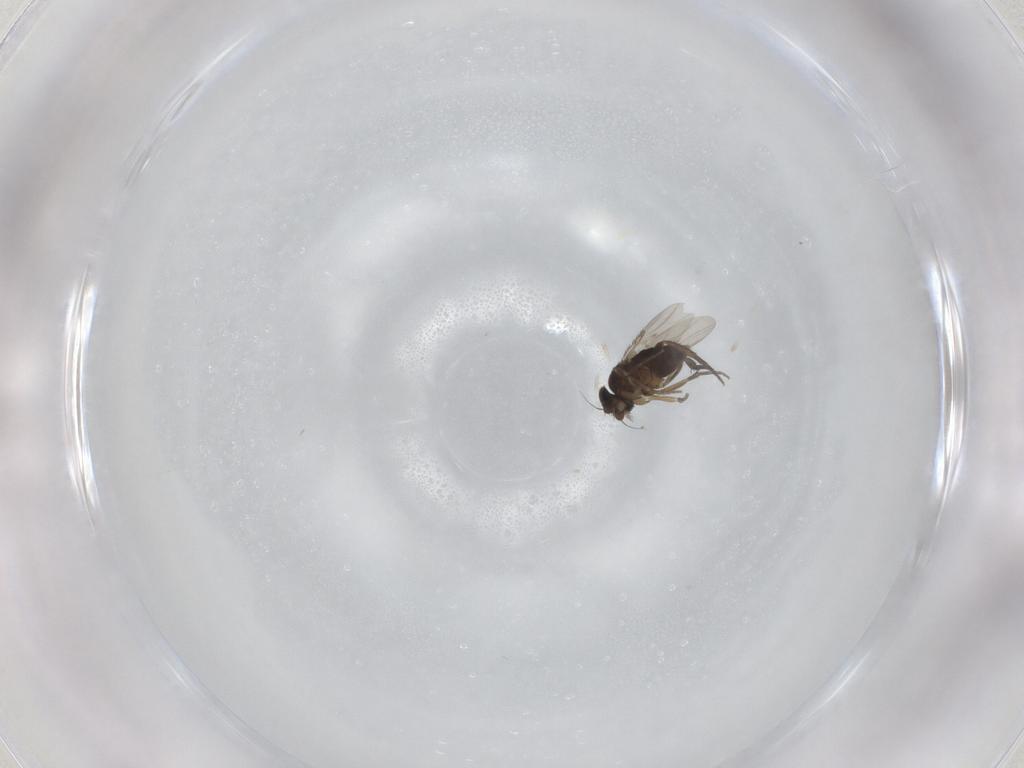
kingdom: Animalia
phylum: Arthropoda
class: Insecta
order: Diptera
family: Phoridae
